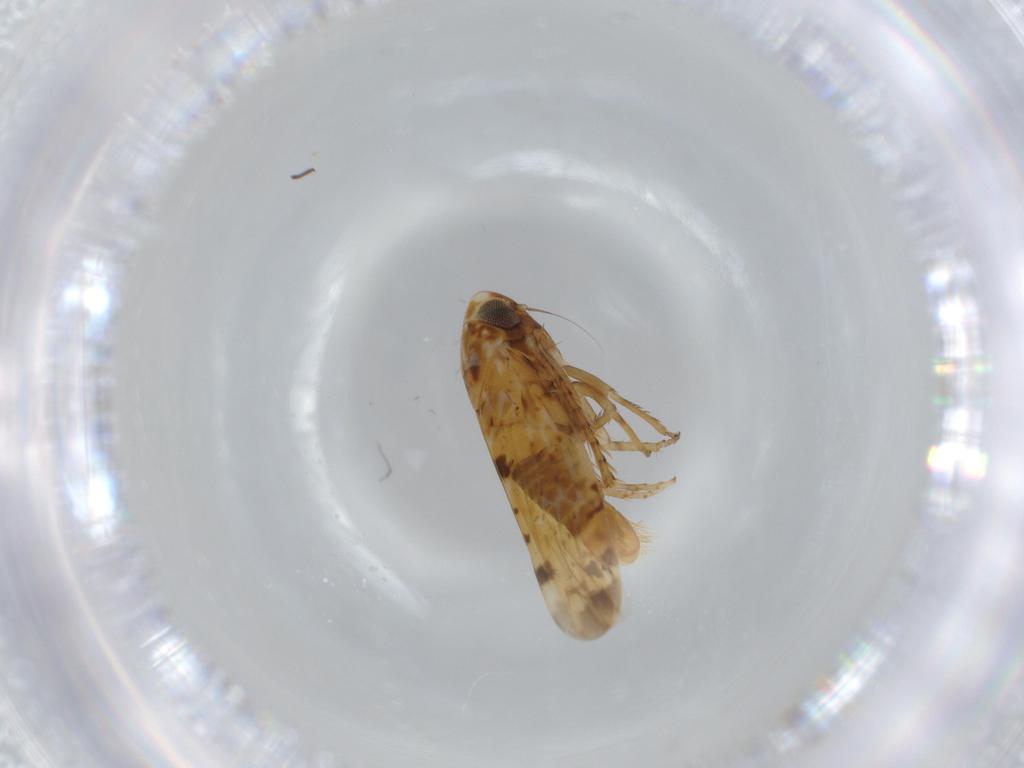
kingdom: Animalia
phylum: Arthropoda
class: Insecta
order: Hemiptera
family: Cicadellidae
